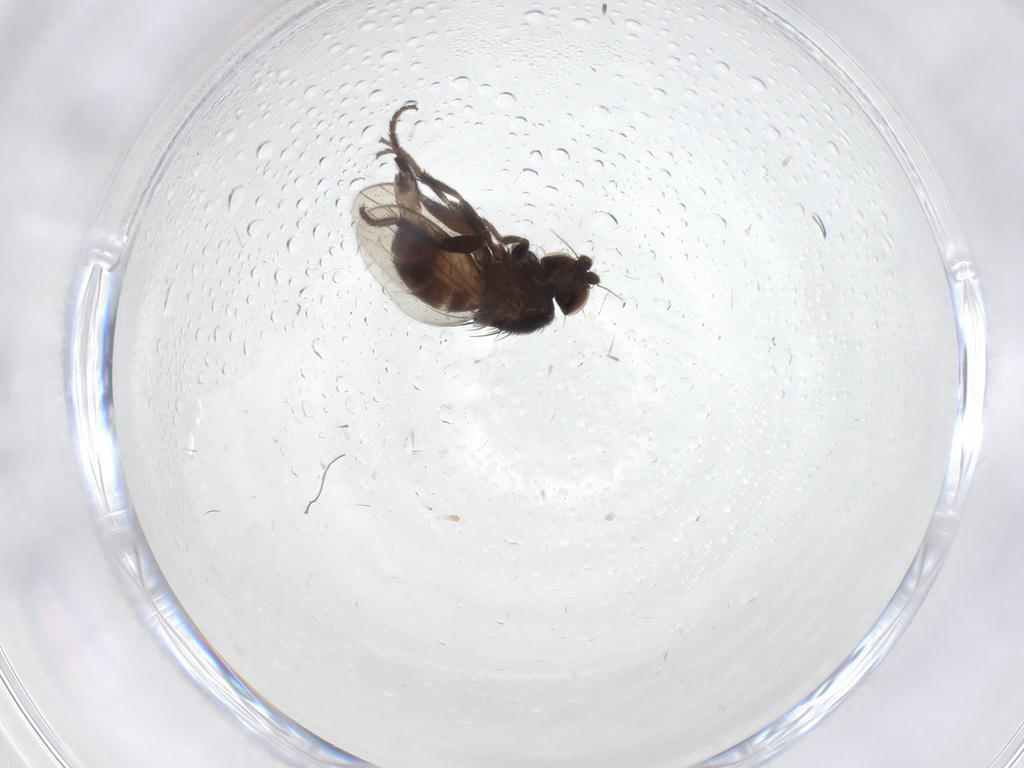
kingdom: Animalia
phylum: Arthropoda
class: Insecta
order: Diptera
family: Milichiidae
